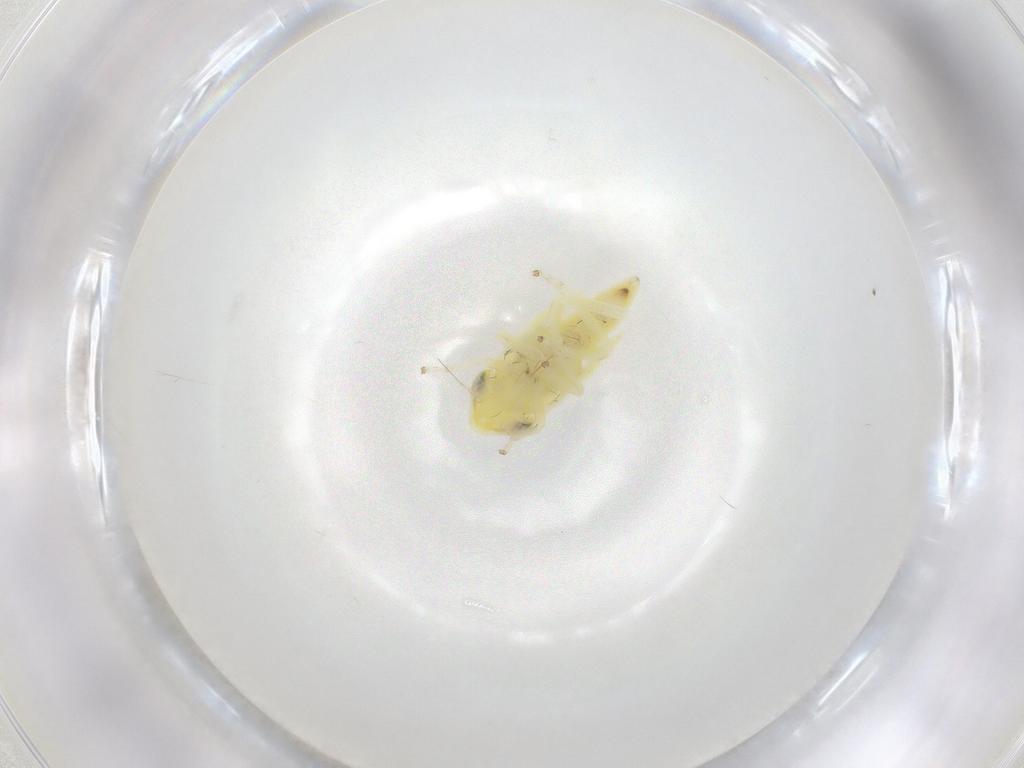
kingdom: Animalia
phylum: Arthropoda
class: Insecta
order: Hemiptera
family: Cicadellidae
